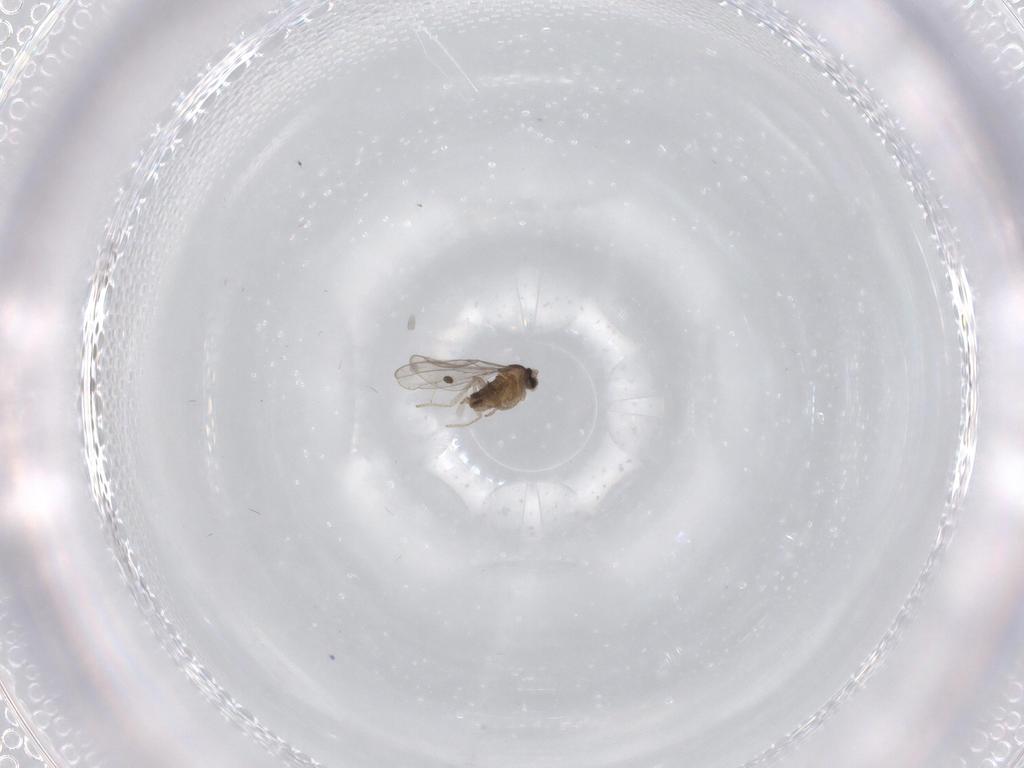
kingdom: Animalia
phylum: Arthropoda
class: Insecta
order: Diptera
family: Cecidomyiidae
